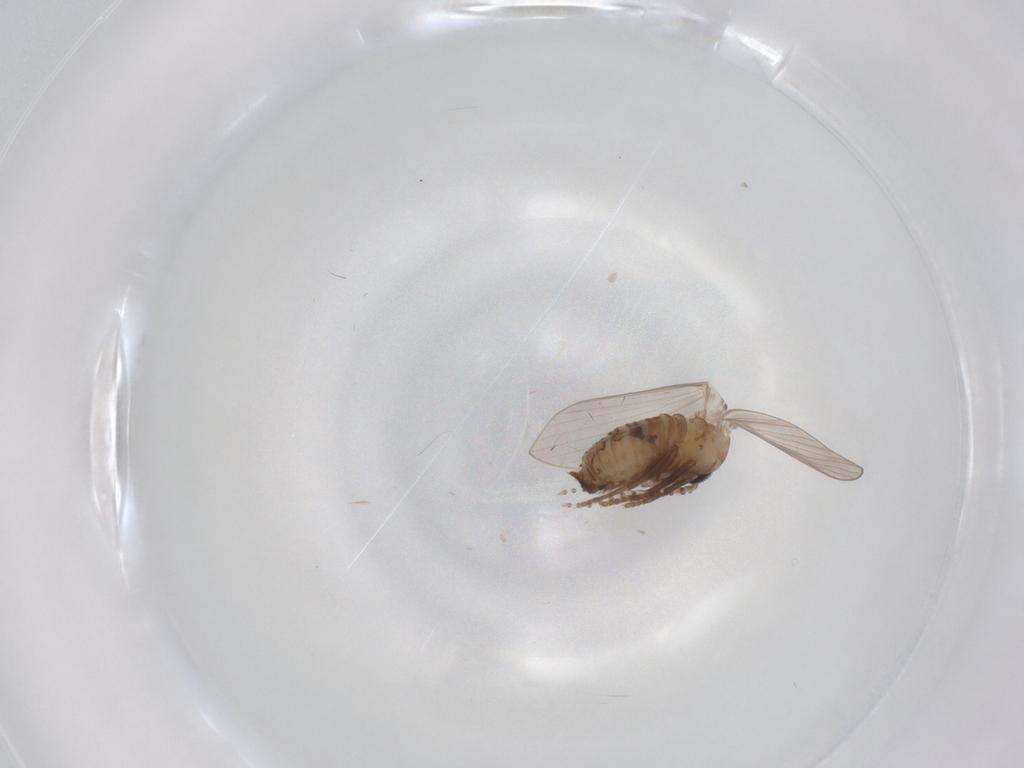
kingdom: Animalia
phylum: Arthropoda
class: Insecta
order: Diptera
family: Psychodidae
